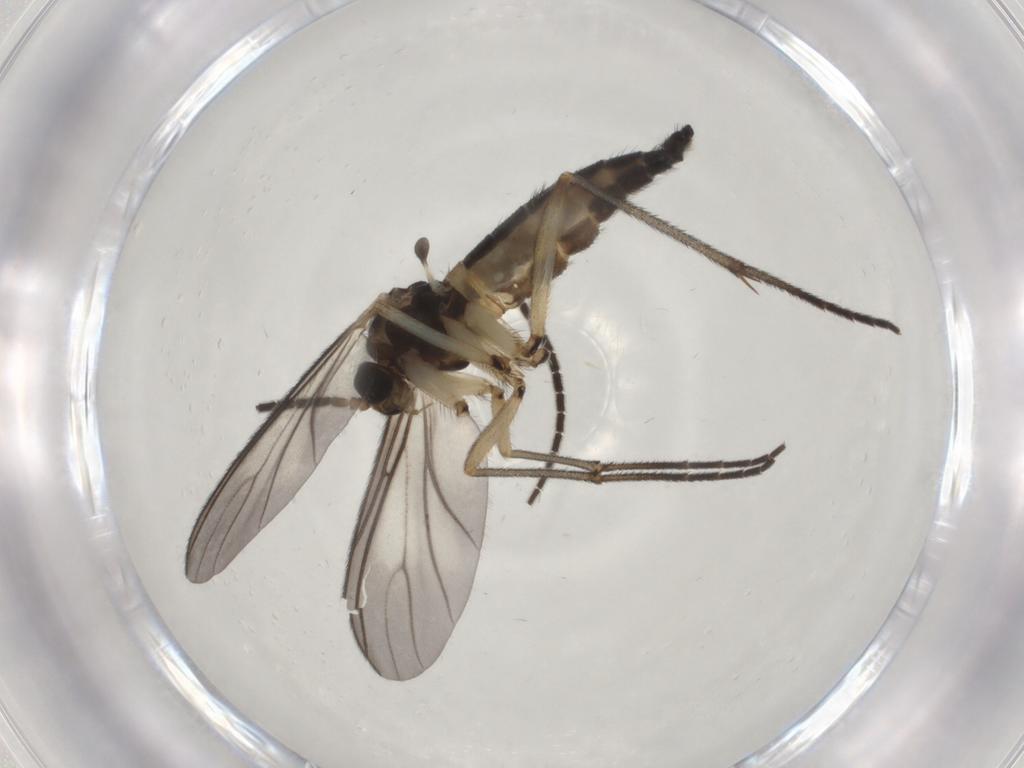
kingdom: Animalia
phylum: Arthropoda
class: Insecta
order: Diptera
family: Sciaridae
